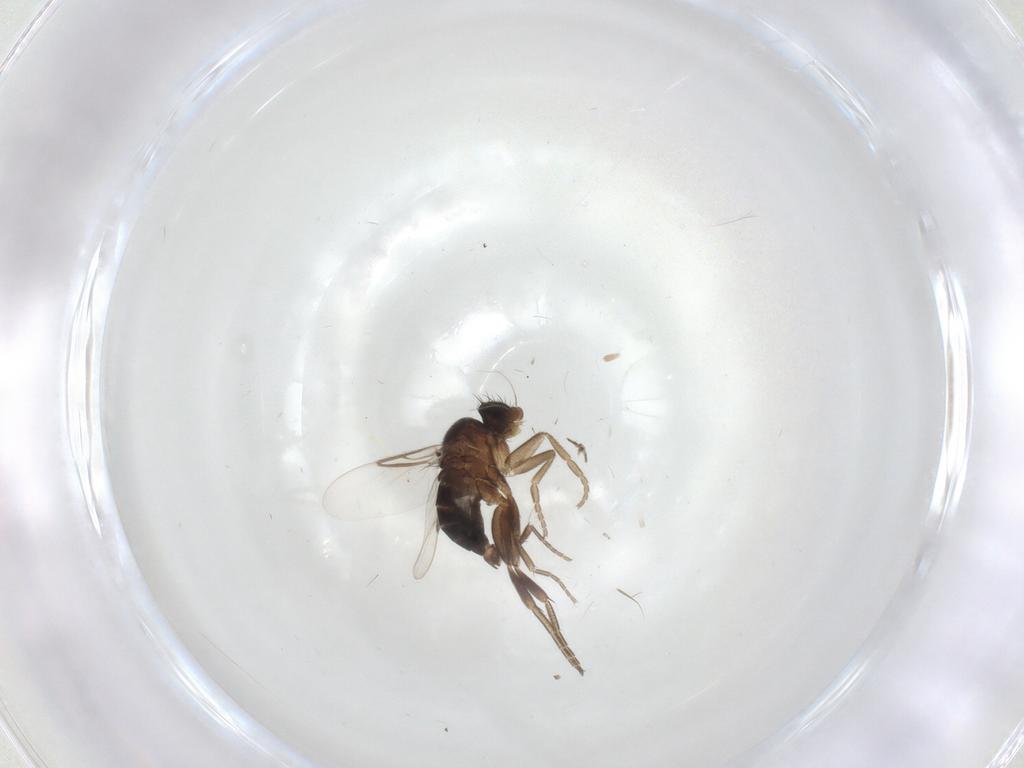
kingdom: Animalia
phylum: Arthropoda
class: Insecta
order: Diptera
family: Phoridae
